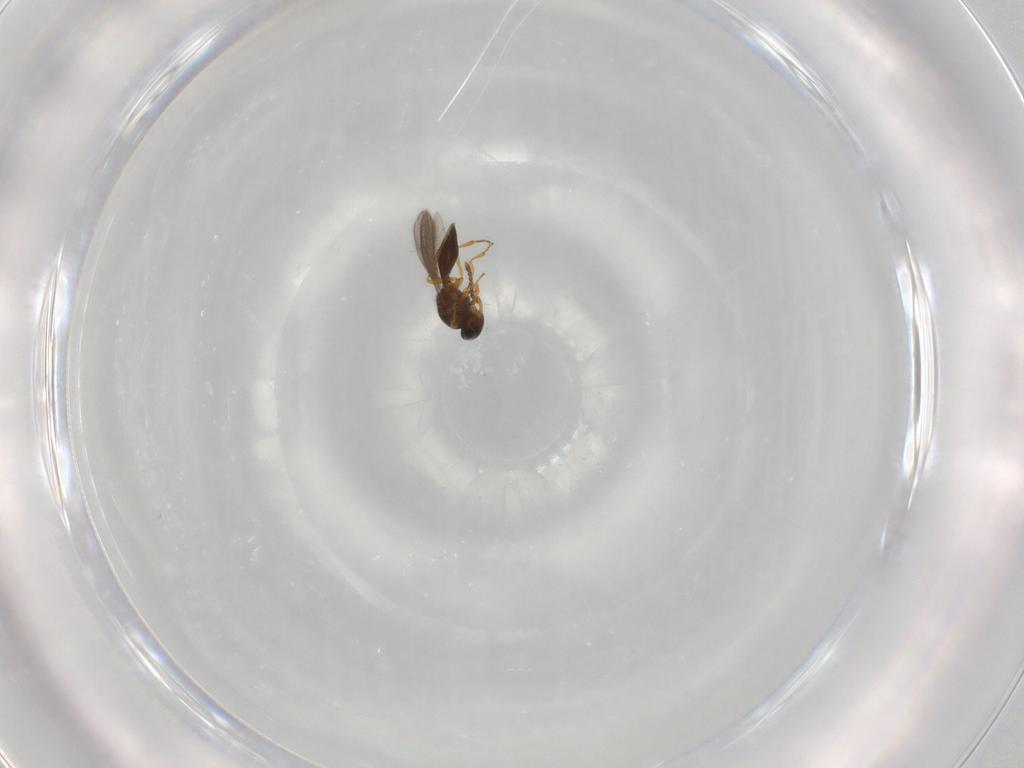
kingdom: Animalia
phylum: Arthropoda
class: Insecta
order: Hymenoptera
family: Platygastridae
